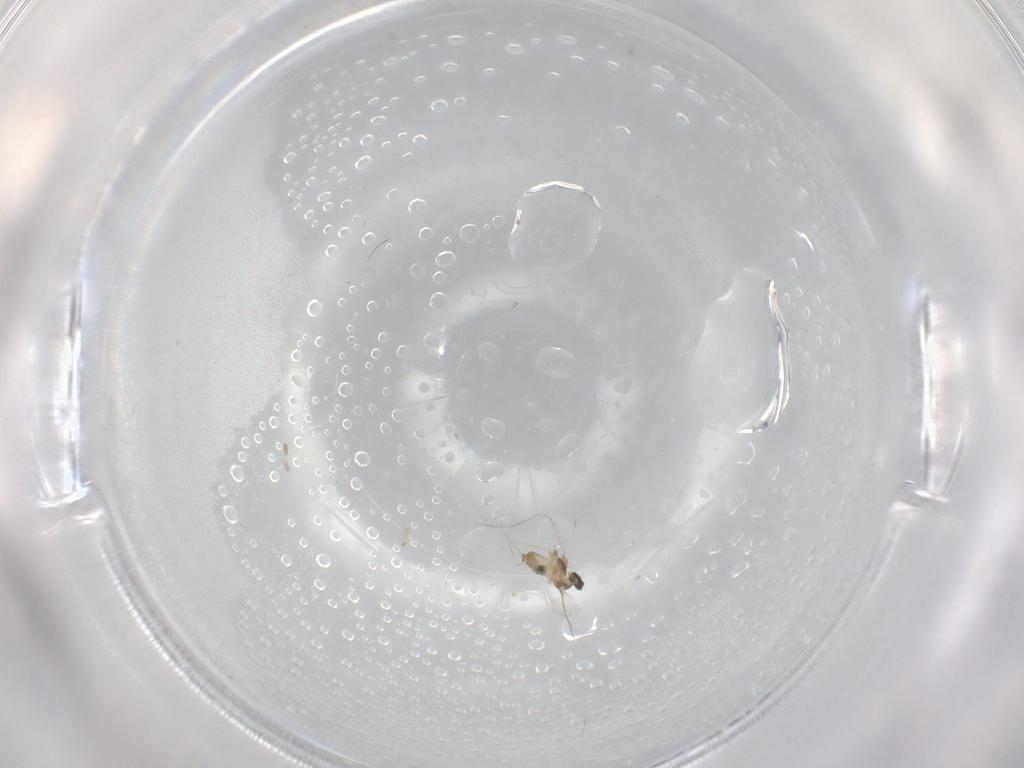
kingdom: Animalia
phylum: Arthropoda
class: Insecta
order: Diptera
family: Cecidomyiidae
